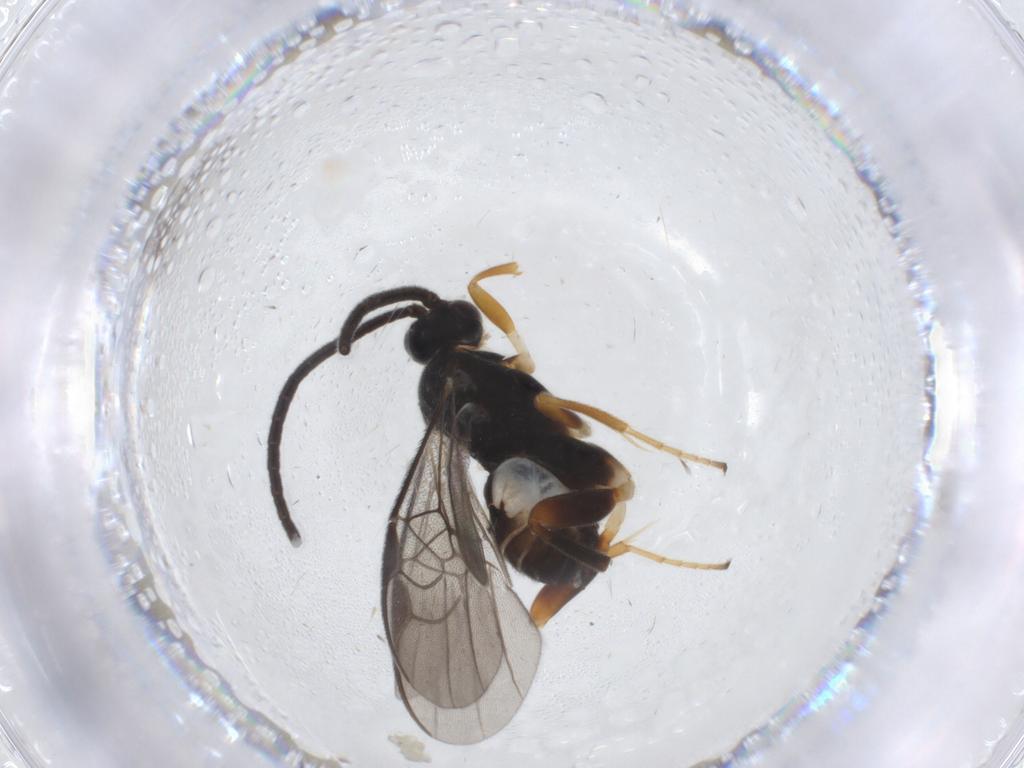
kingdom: Animalia
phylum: Arthropoda
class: Insecta
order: Hymenoptera
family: Braconidae
